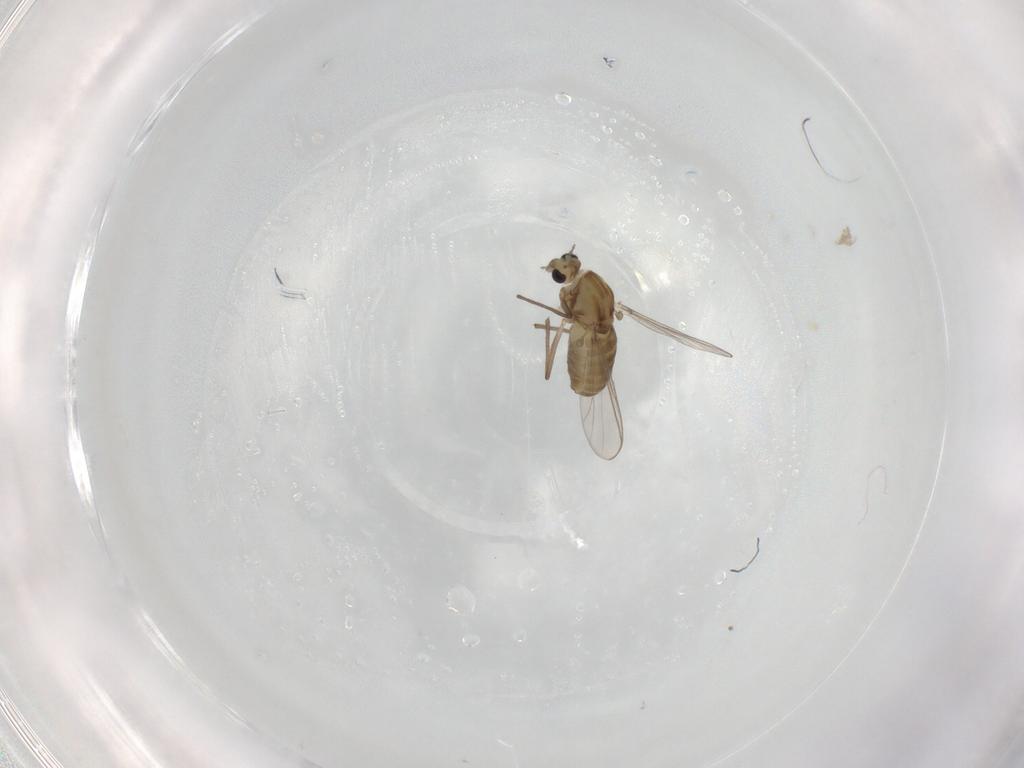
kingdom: Animalia
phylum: Arthropoda
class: Insecta
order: Diptera
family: Chironomidae
